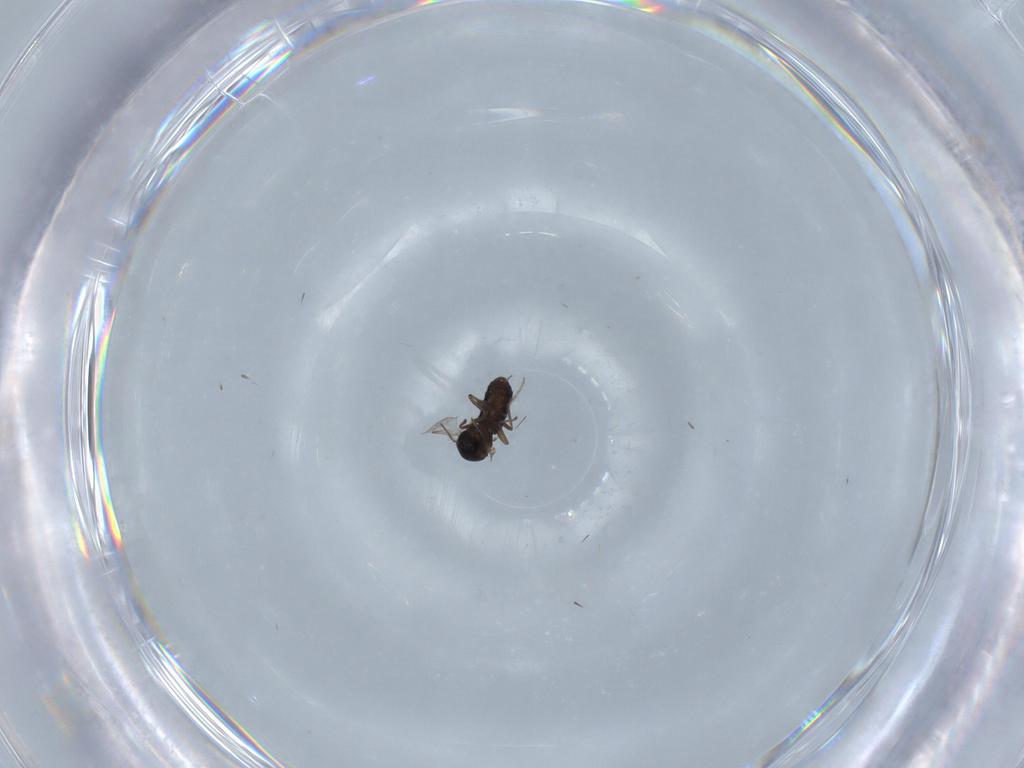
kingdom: Animalia
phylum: Arthropoda
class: Insecta
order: Diptera
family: Ceratopogonidae
